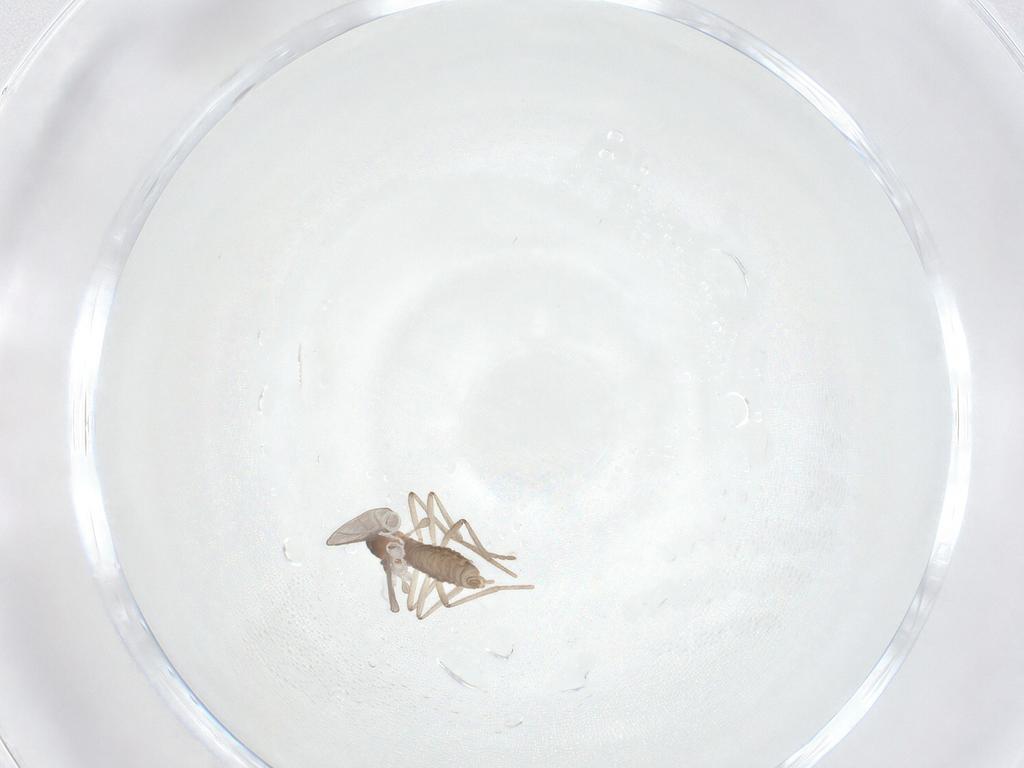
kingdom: Animalia
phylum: Arthropoda
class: Insecta
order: Diptera
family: Cecidomyiidae
